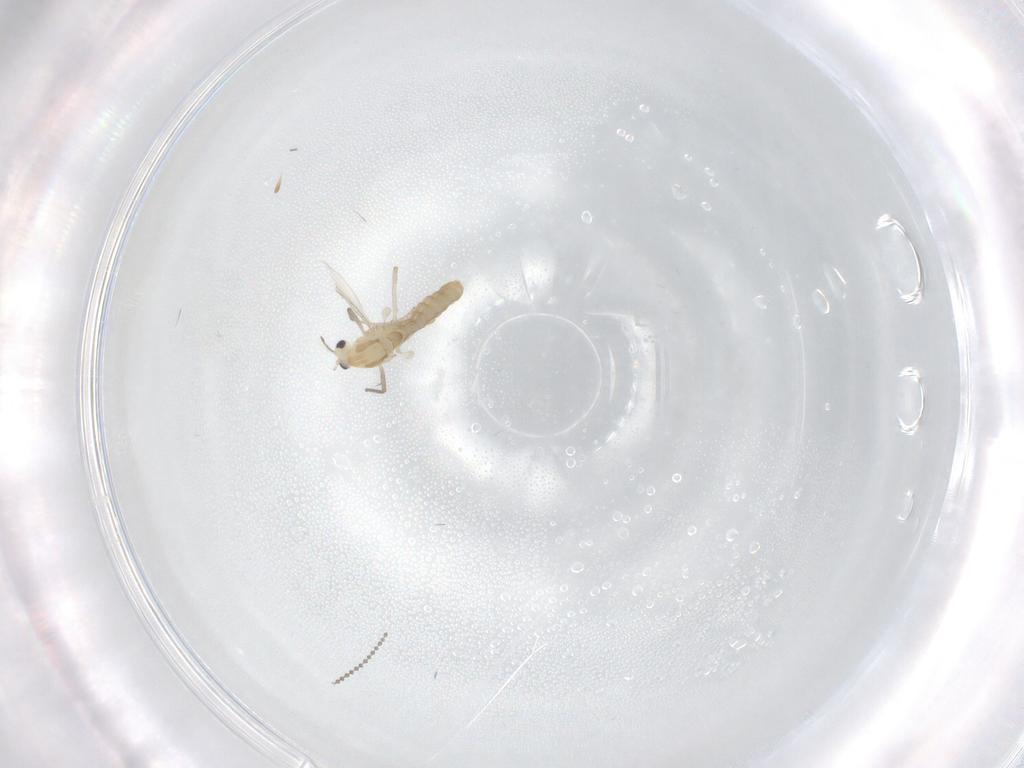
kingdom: Animalia
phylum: Arthropoda
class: Insecta
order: Diptera
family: Chironomidae
